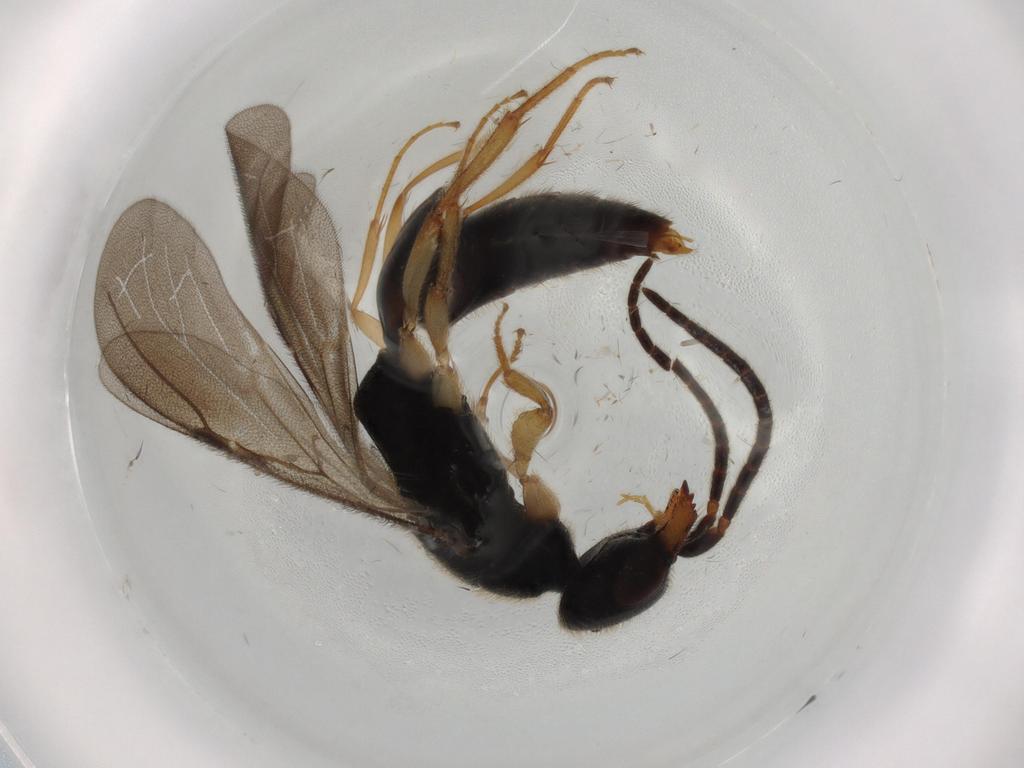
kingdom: Animalia
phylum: Arthropoda
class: Insecta
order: Hymenoptera
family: Bethylidae
